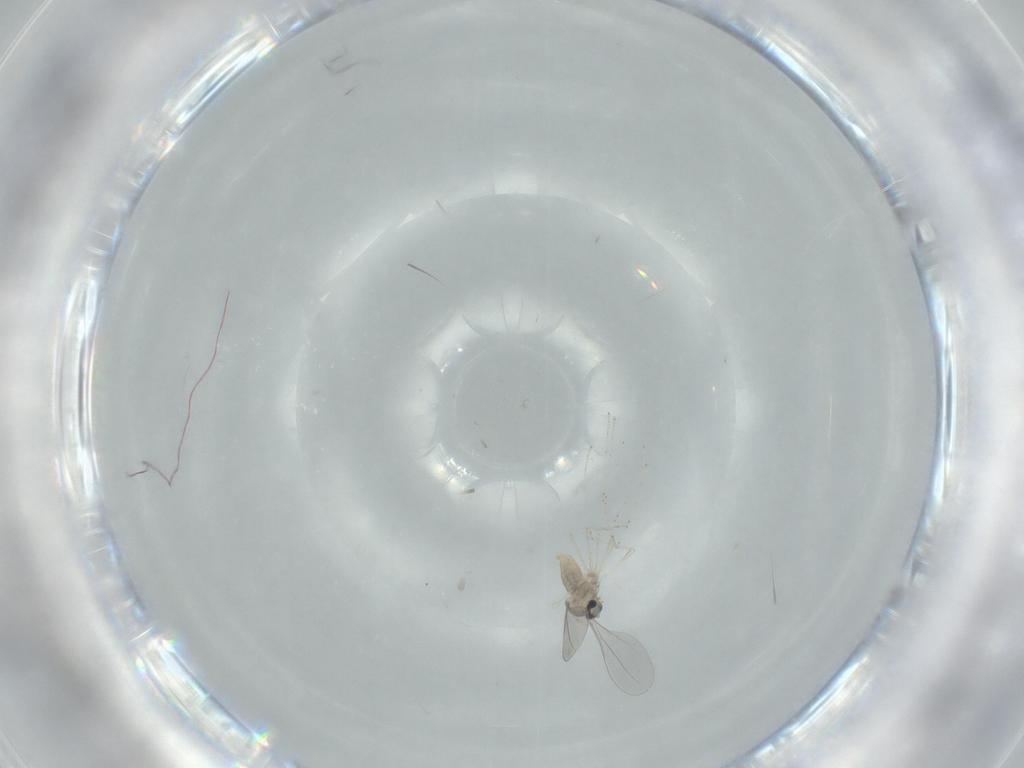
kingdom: Animalia
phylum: Arthropoda
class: Insecta
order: Diptera
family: Cecidomyiidae
